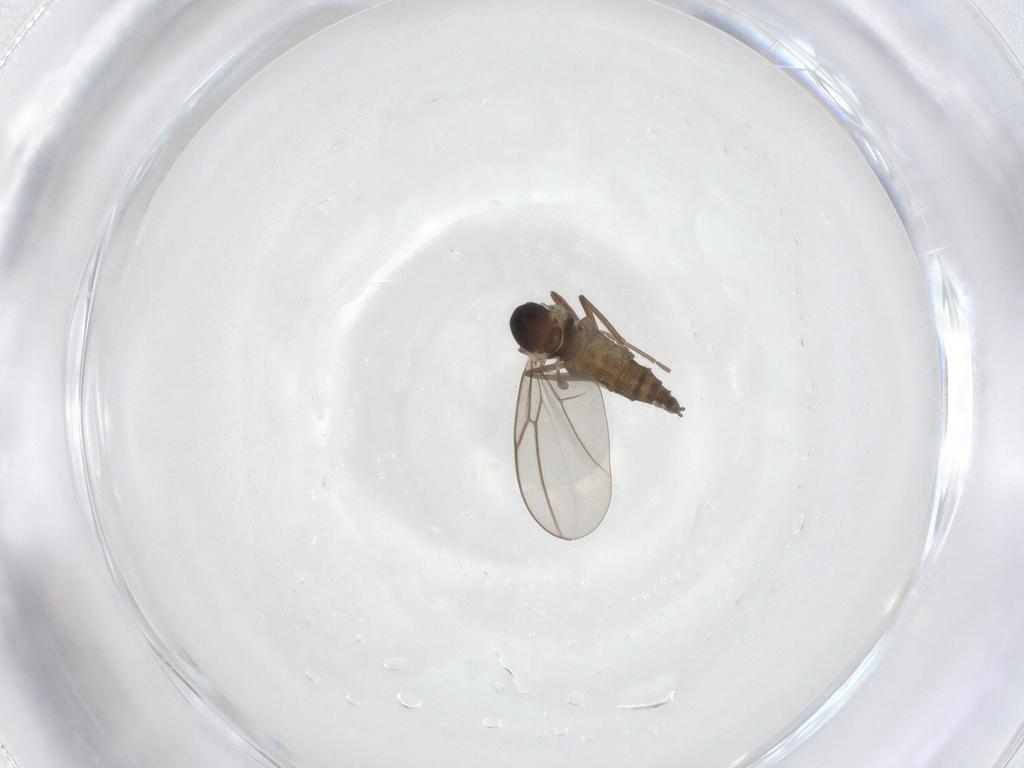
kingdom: Animalia
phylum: Arthropoda
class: Insecta
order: Diptera
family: Cecidomyiidae
